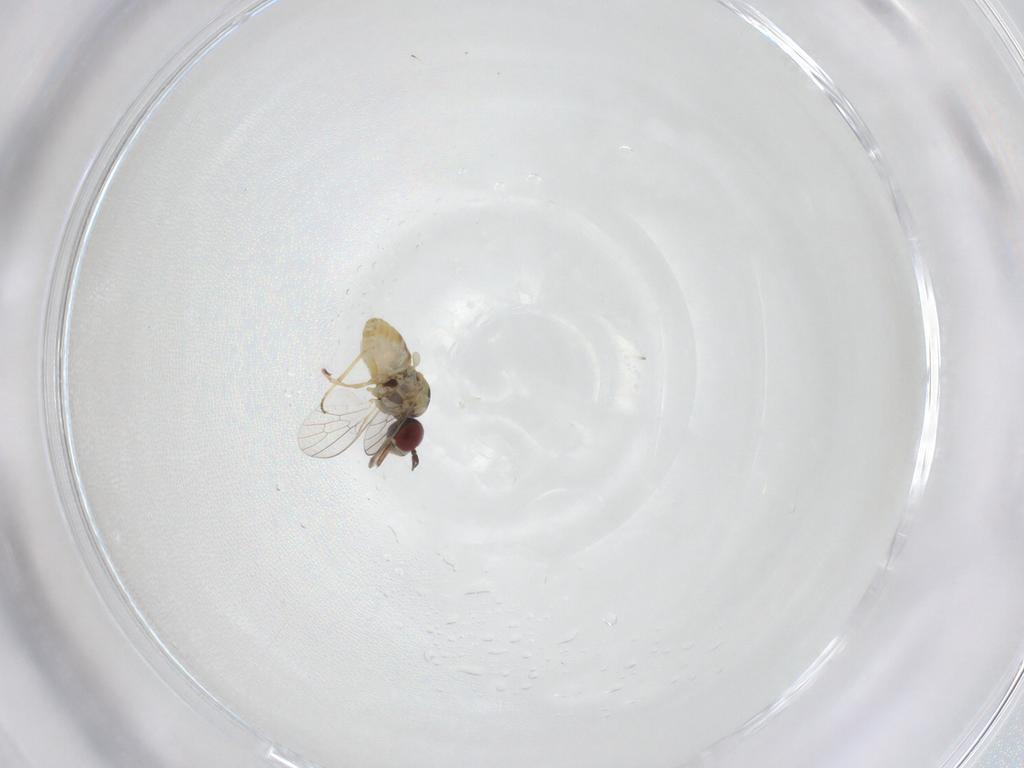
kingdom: Animalia
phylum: Arthropoda
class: Insecta
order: Diptera
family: Bombyliidae
